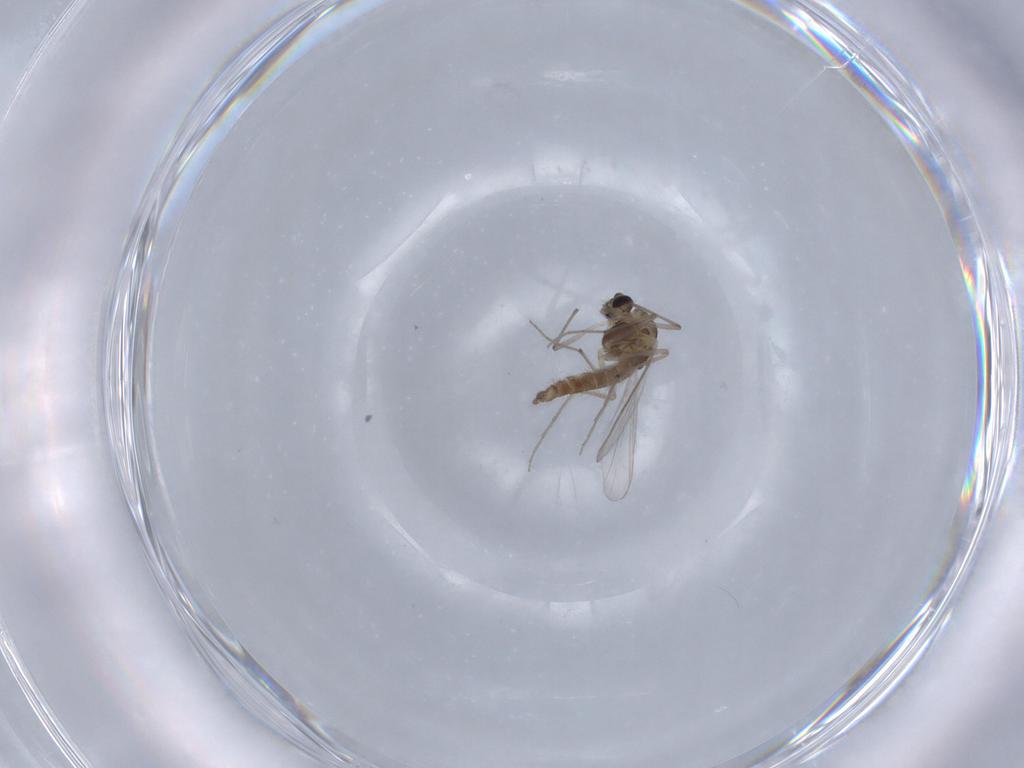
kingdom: Animalia
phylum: Arthropoda
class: Insecta
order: Diptera
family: Chironomidae
